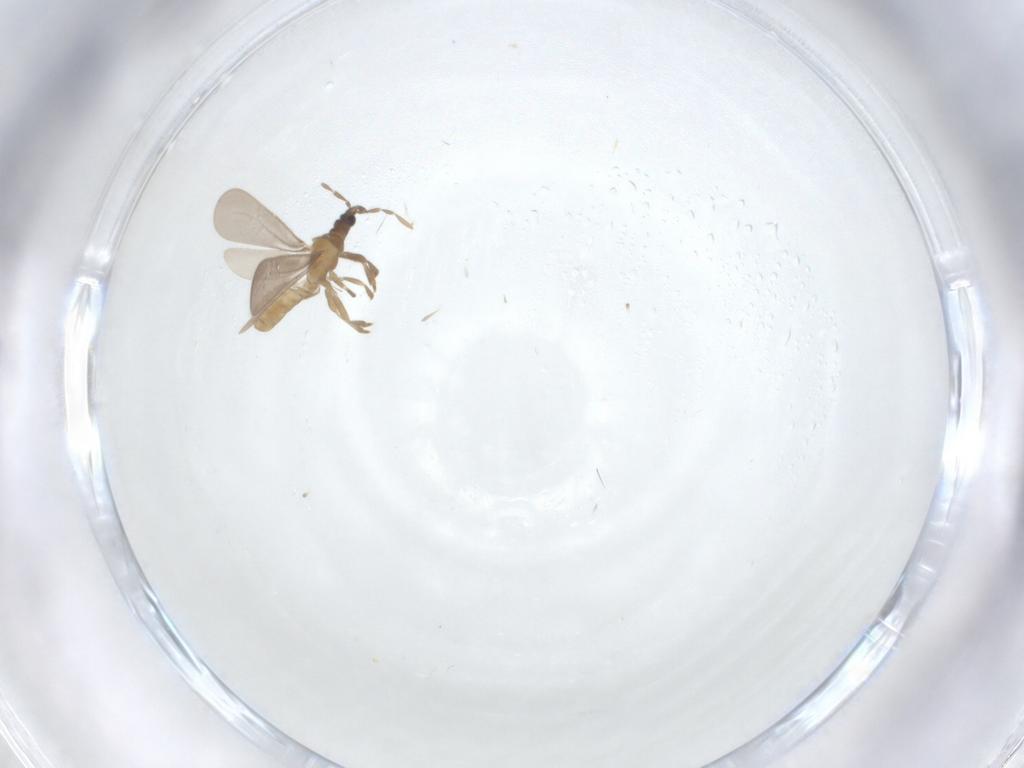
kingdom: Animalia
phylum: Arthropoda
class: Insecta
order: Hemiptera
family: Enicocephalidae
